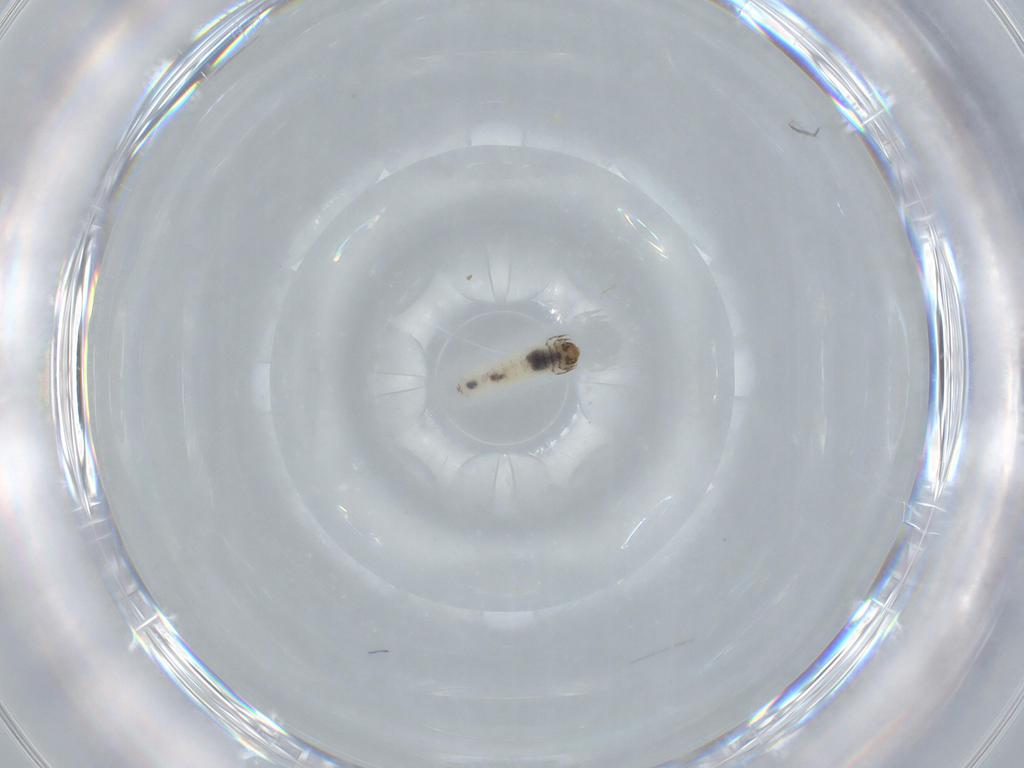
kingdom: Animalia
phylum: Arthropoda
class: Insecta
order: Lepidoptera
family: Tineidae
